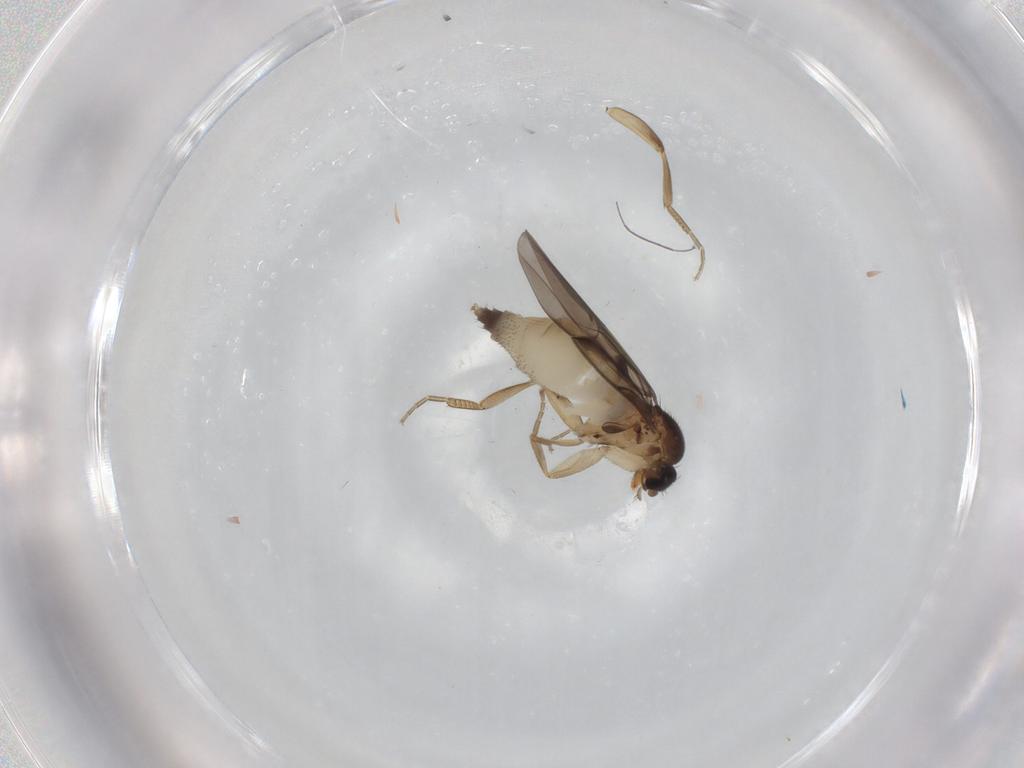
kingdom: Animalia
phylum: Arthropoda
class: Insecta
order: Diptera
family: Phoridae
